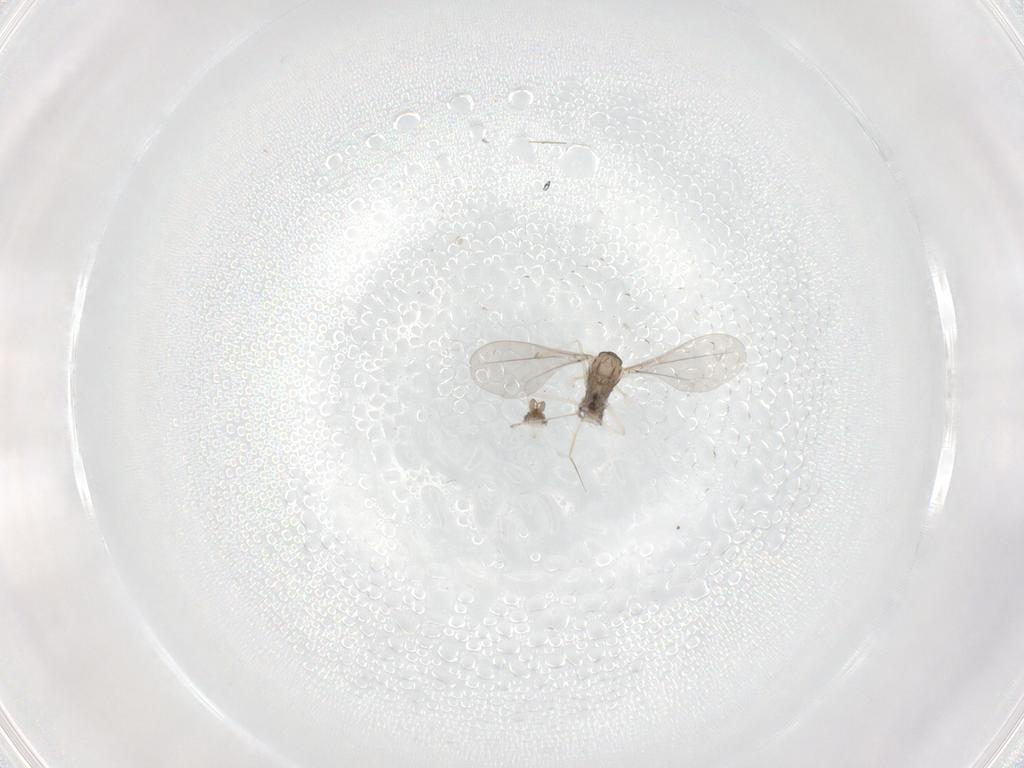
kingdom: Animalia
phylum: Arthropoda
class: Insecta
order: Diptera
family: Cecidomyiidae
